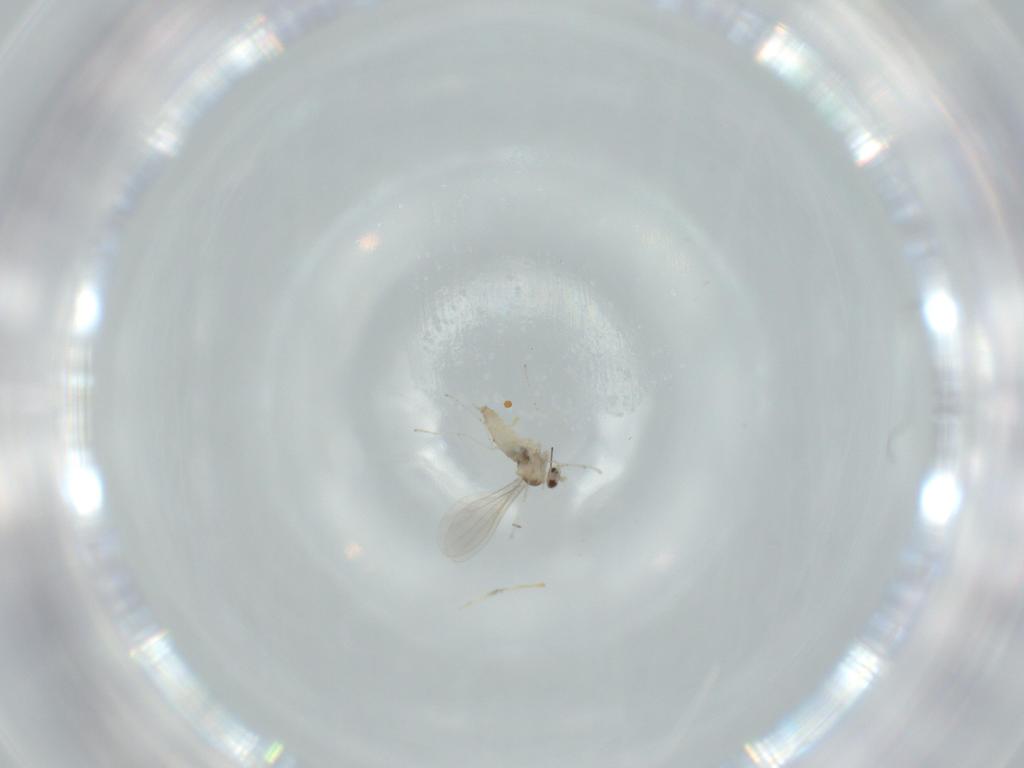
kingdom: Animalia
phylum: Arthropoda
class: Insecta
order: Diptera
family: Cecidomyiidae
